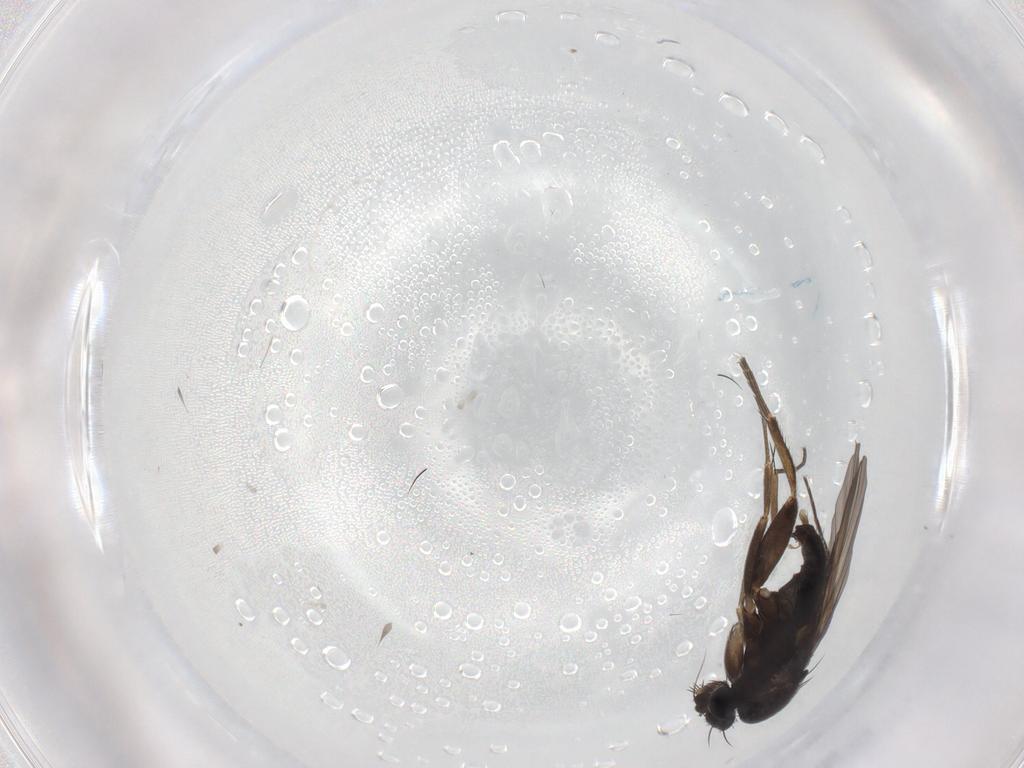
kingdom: Animalia
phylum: Arthropoda
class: Insecta
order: Diptera
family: Phoridae
